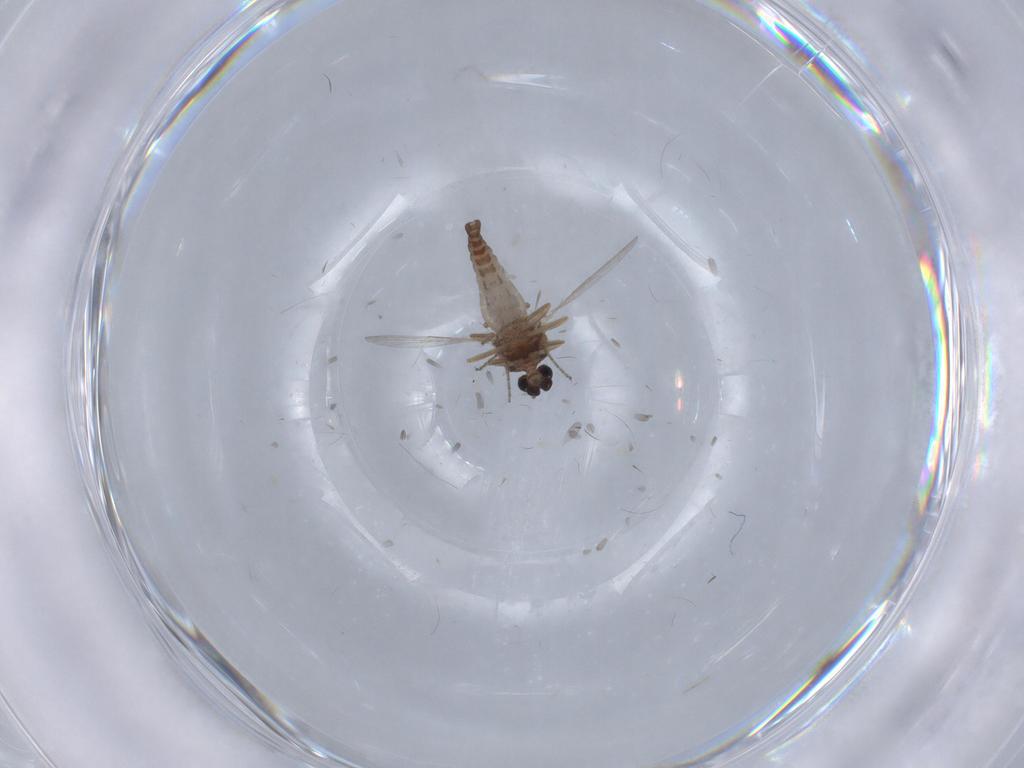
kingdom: Animalia
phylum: Arthropoda
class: Insecta
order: Diptera
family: Ceratopogonidae
